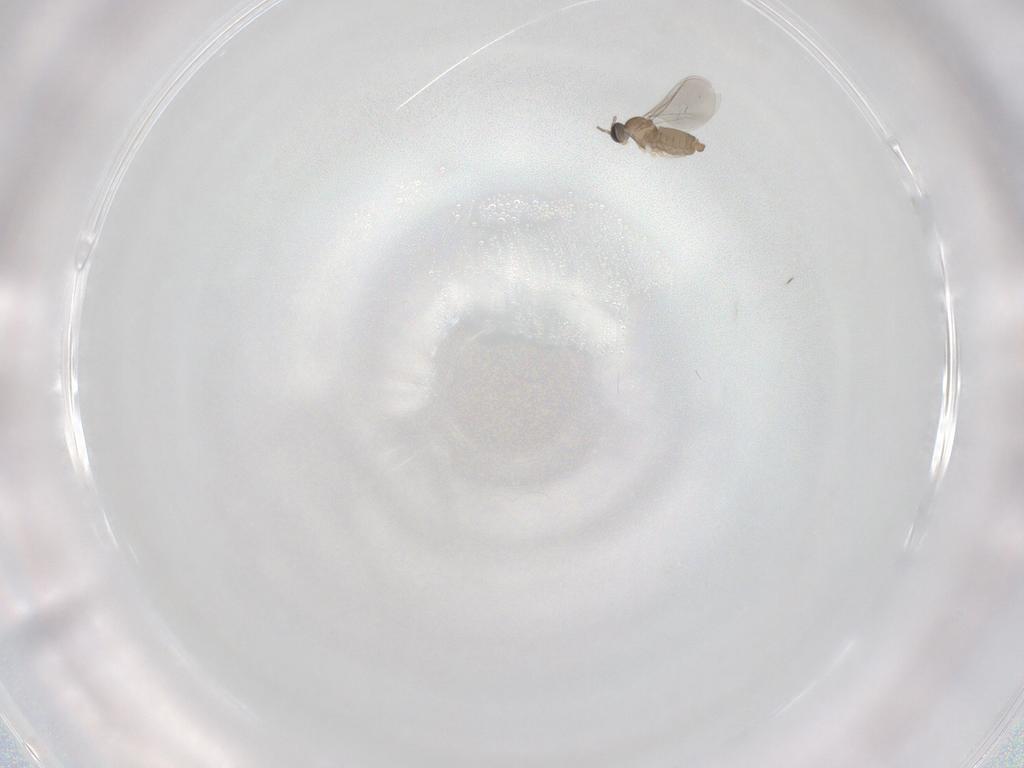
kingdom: Animalia
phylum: Arthropoda
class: Insecta
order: Diptera
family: Cecidomyiidae
